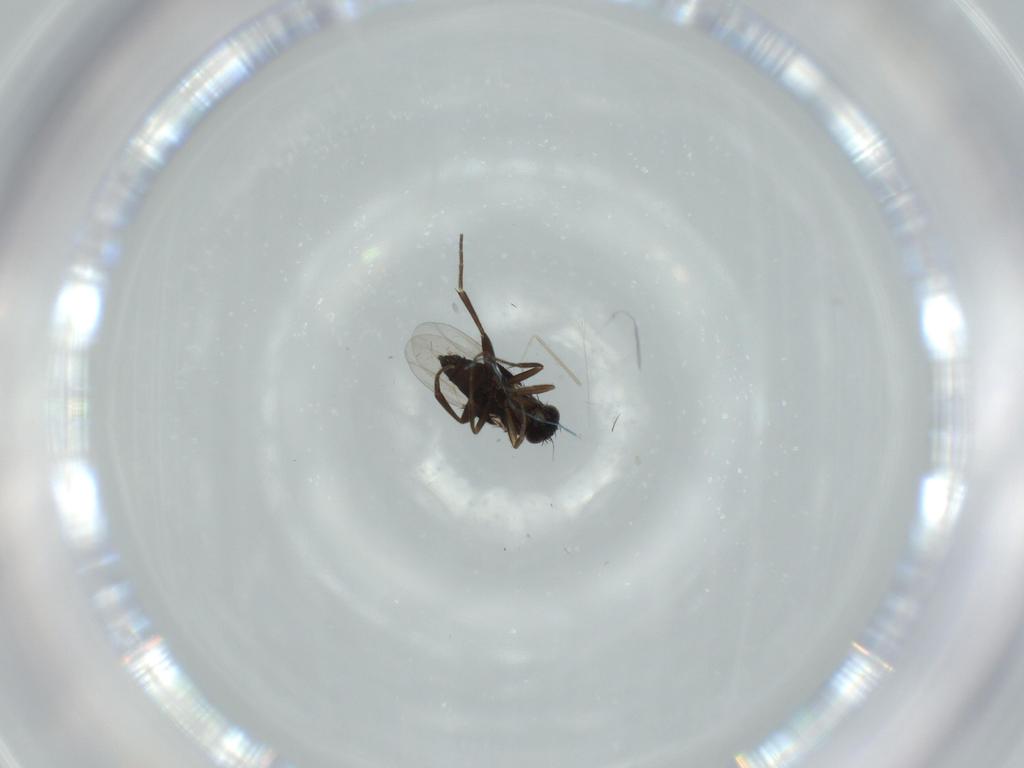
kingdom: Animalia
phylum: Arthropoda
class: Insecta
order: Diptera
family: Phoridae
